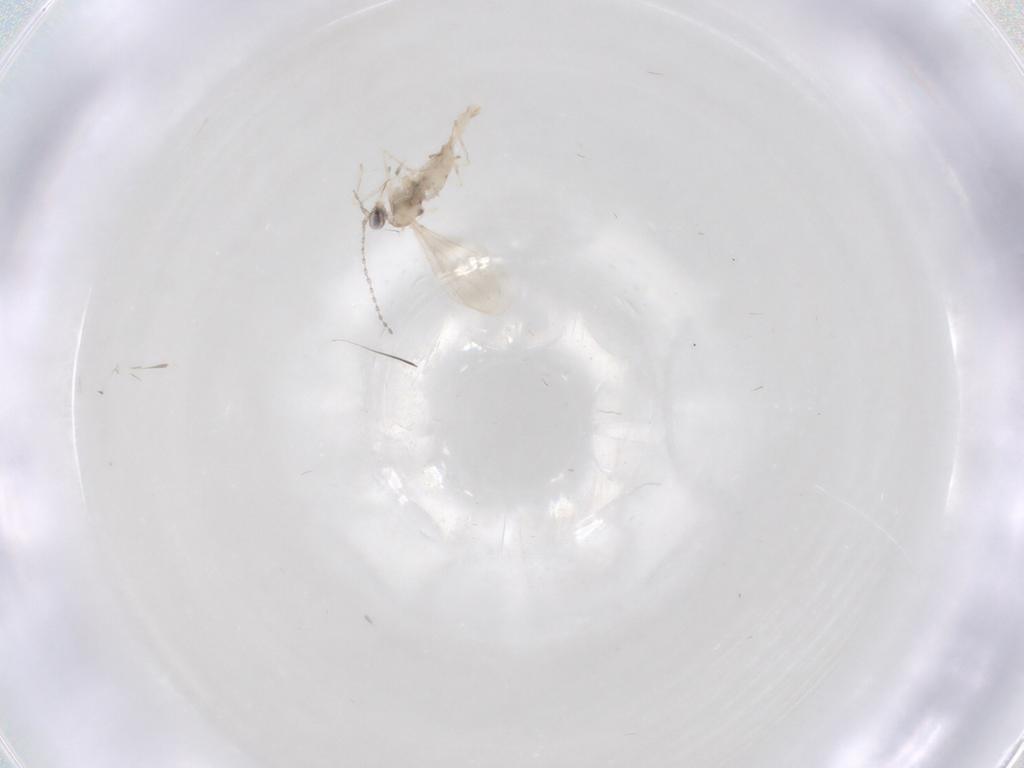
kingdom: Animalia
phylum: Arthropoda
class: Insecta
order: Diptera
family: Cecidomyiidae
